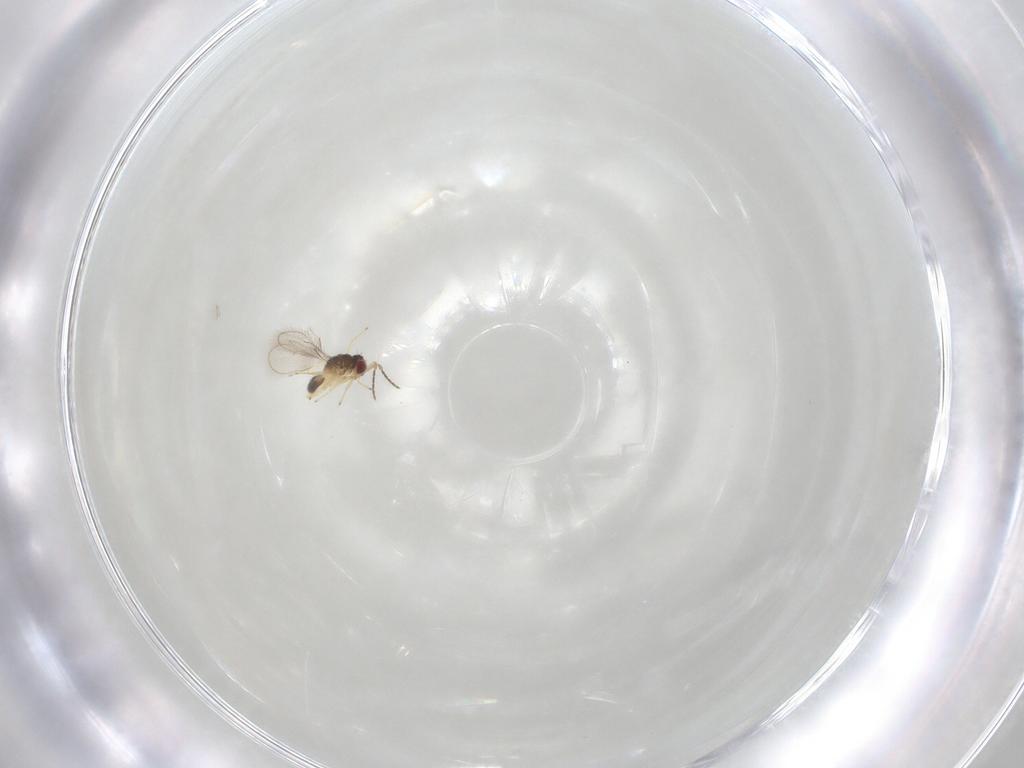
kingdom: Animalia
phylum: Arthropoda
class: Insecta
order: Hymenoptera
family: Eulophidae
